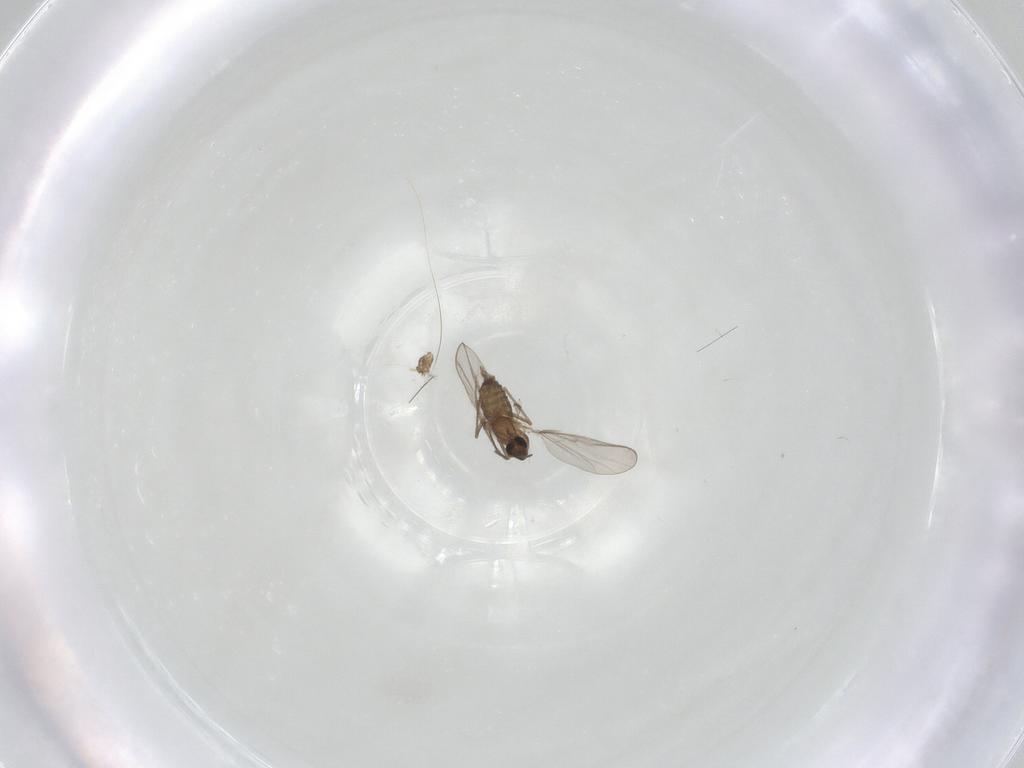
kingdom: Animalia
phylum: Arthropoda
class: Insecta
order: Diptera
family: Chironomidae
